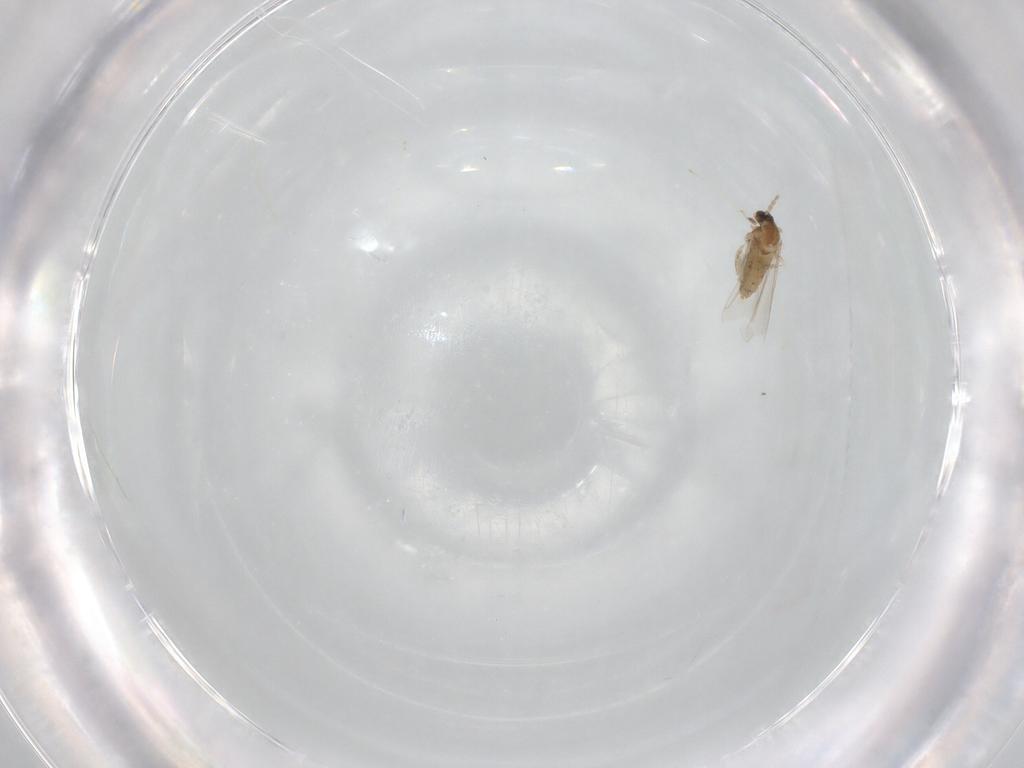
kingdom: Animalia
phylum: Arthropoda
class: Insecta
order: Diptera
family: Cecidomyiidae
